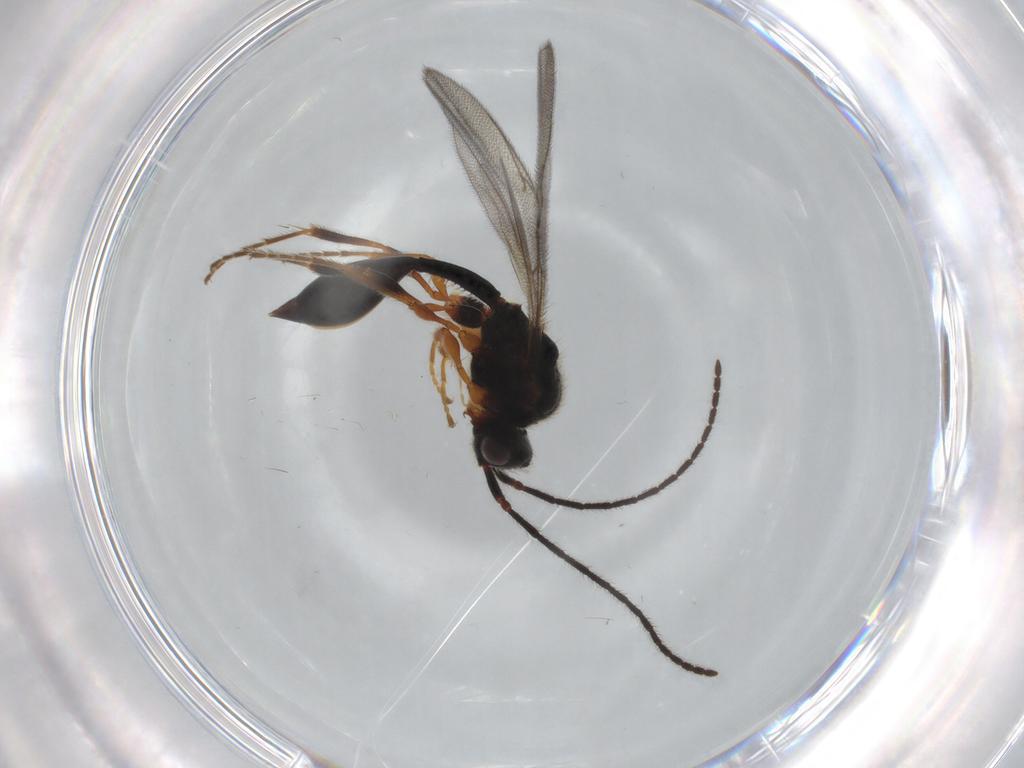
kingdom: Animalia
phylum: Arthropoda
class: Insecta
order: Hymenoptera
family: Diapriidae
